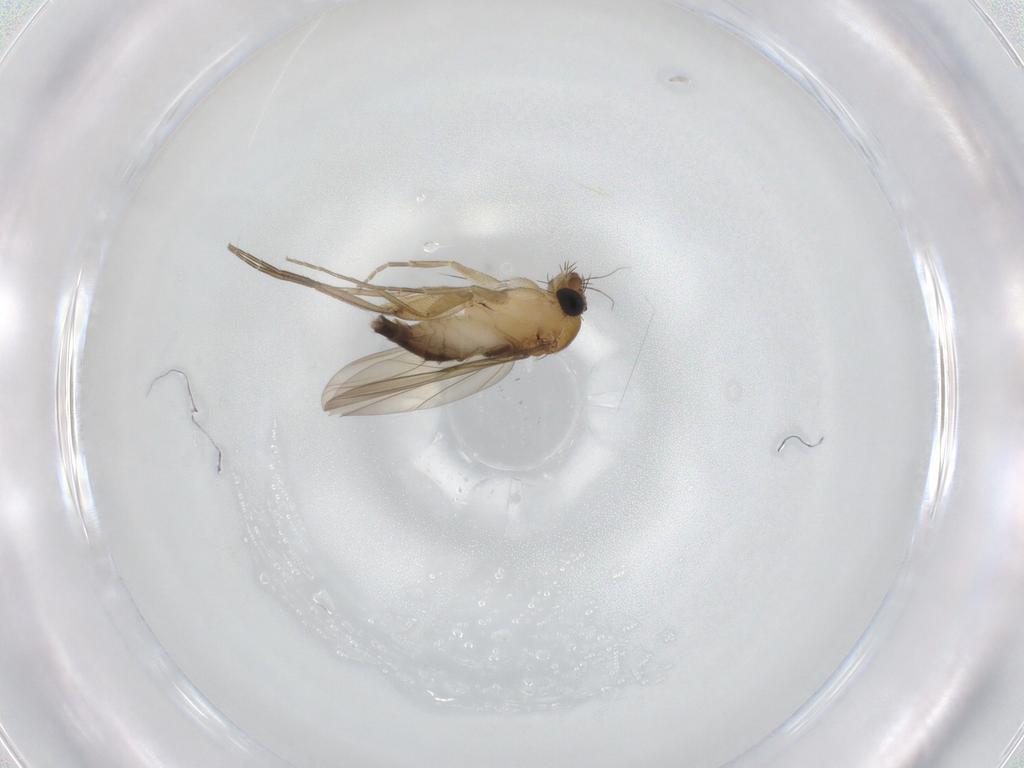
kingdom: Animalia
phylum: Arthropoda
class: Insecta
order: Diptera
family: Phoridae
